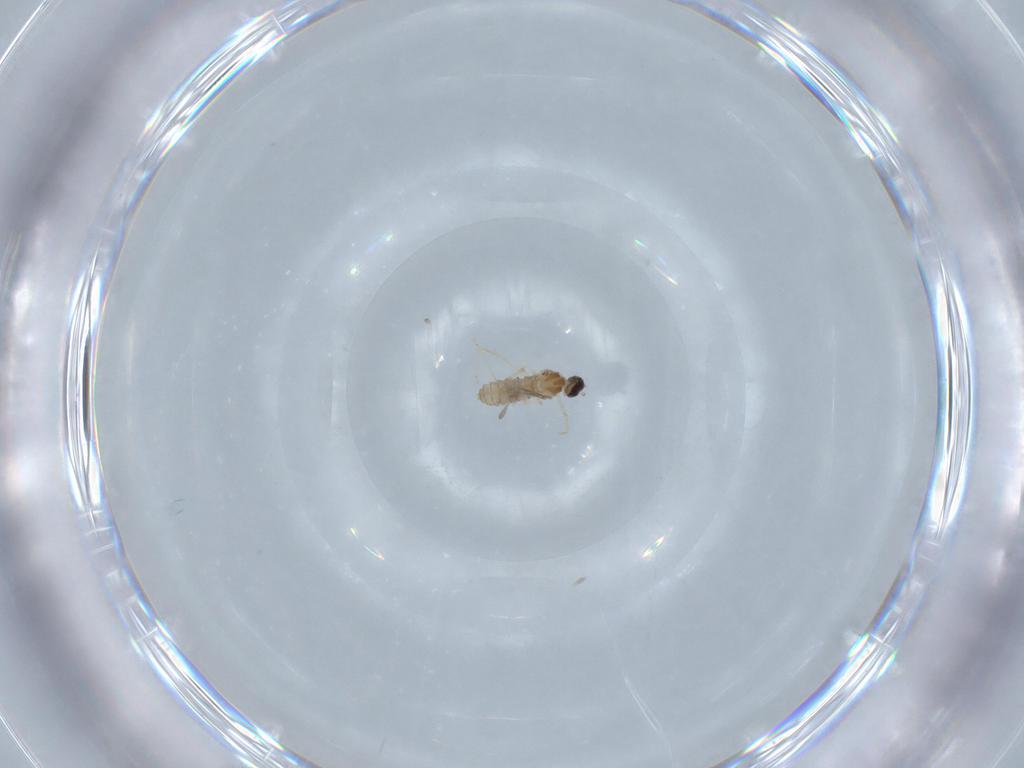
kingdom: Animalia
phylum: Arthropoda
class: Insecta
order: Diptera
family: Cecidomyiidae
